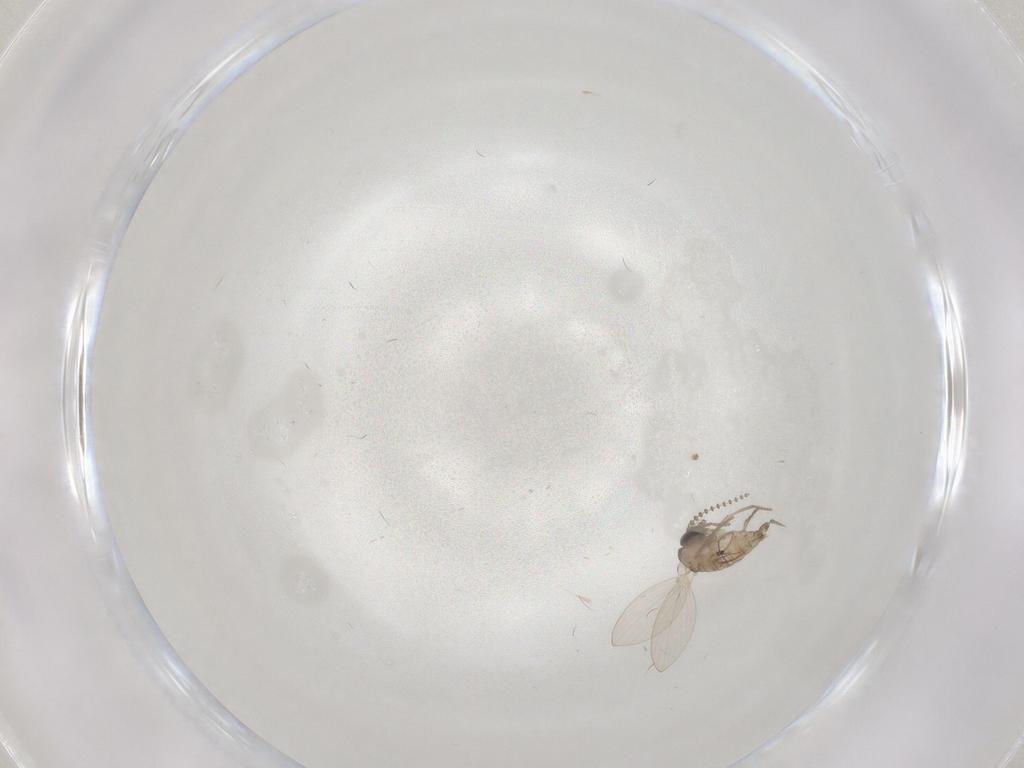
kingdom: Animalia
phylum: Arthropoda
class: Insecta
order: Diptera
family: Psychodidae
